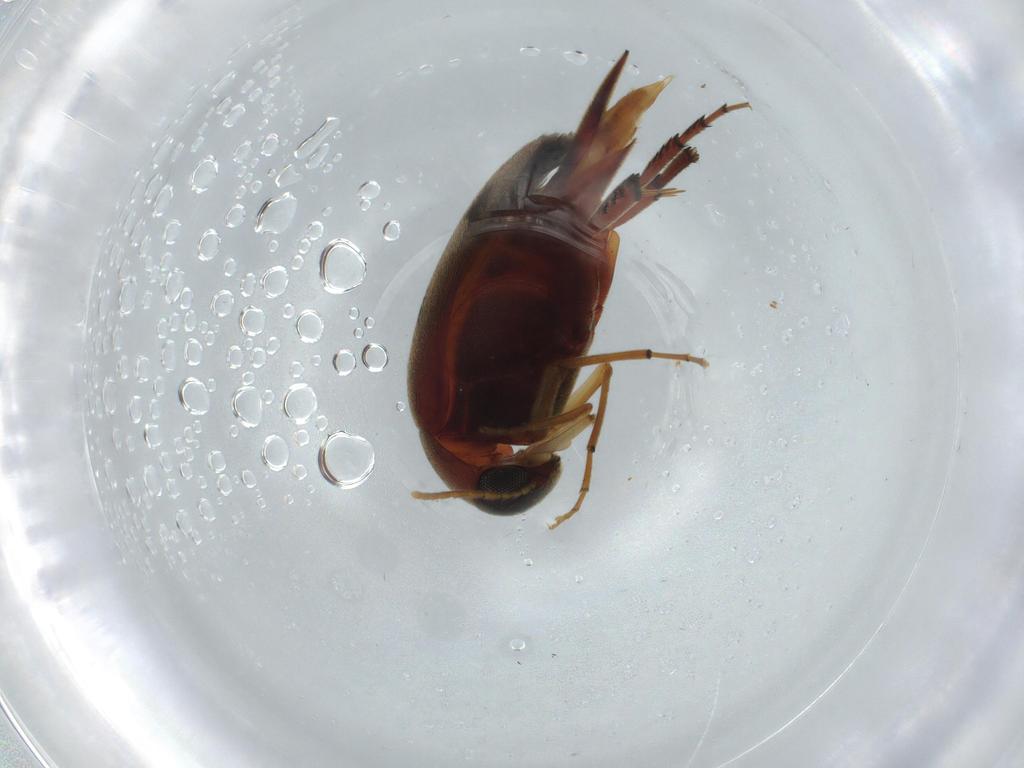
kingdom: Animalia
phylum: Arthropoda
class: Insecta
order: Coleoptera
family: Mordellidae
